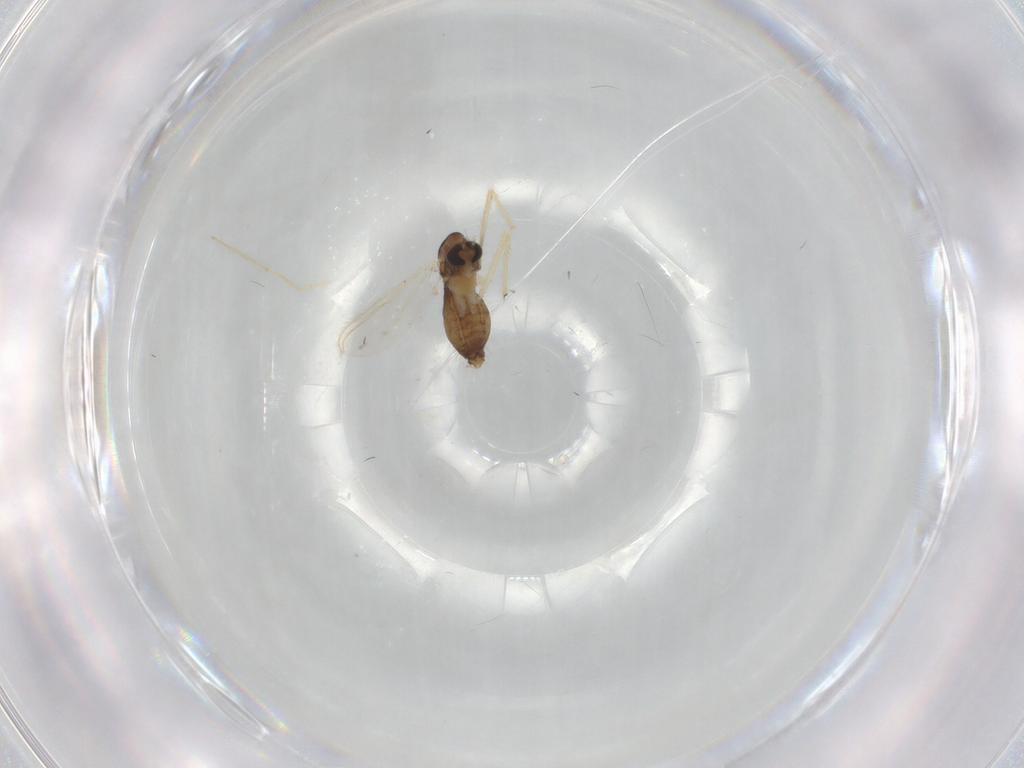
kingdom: Animalia
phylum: Arthropoda
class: Insecta
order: Diptera
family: Chironomidae
